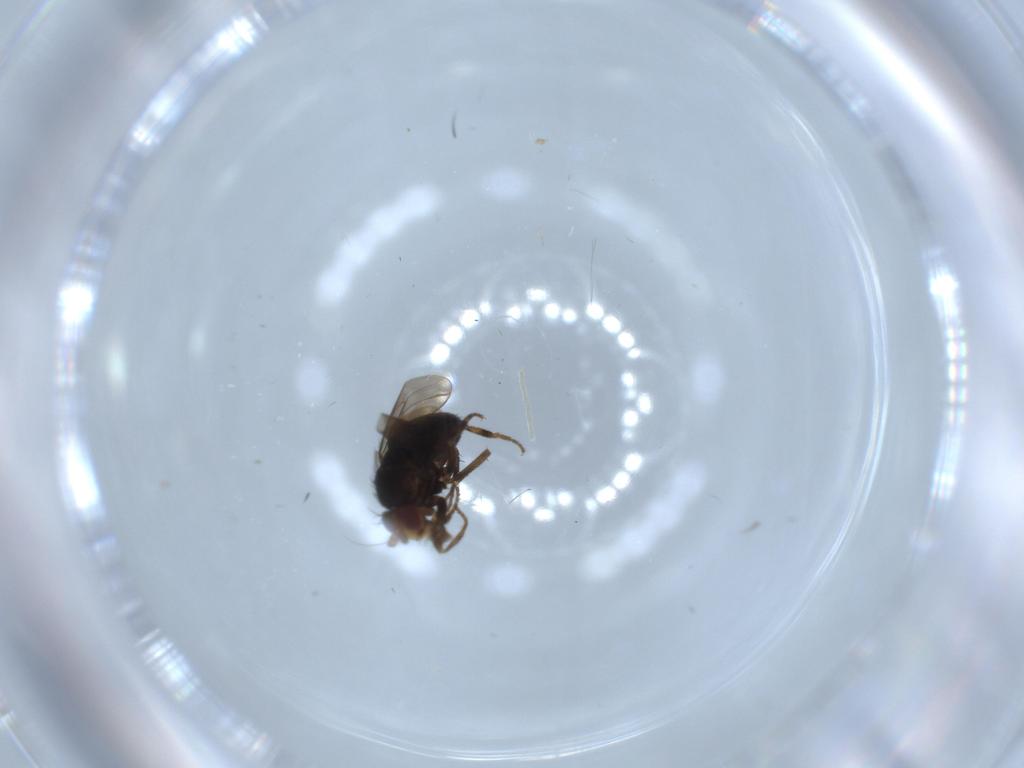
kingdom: Animalia
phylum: Arthropoda
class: Insecta
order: Diptera
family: Sphaeroceridae
